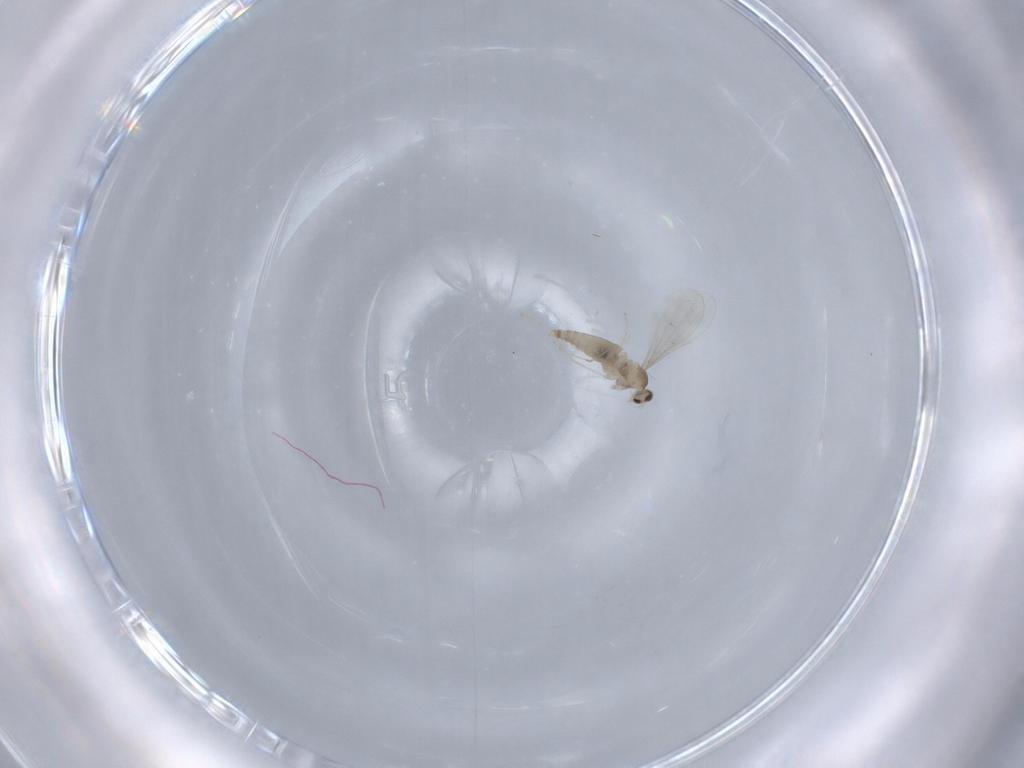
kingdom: Animalia
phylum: Arthropoda
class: Insecta
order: Diptera
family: Cecidomyiidae
